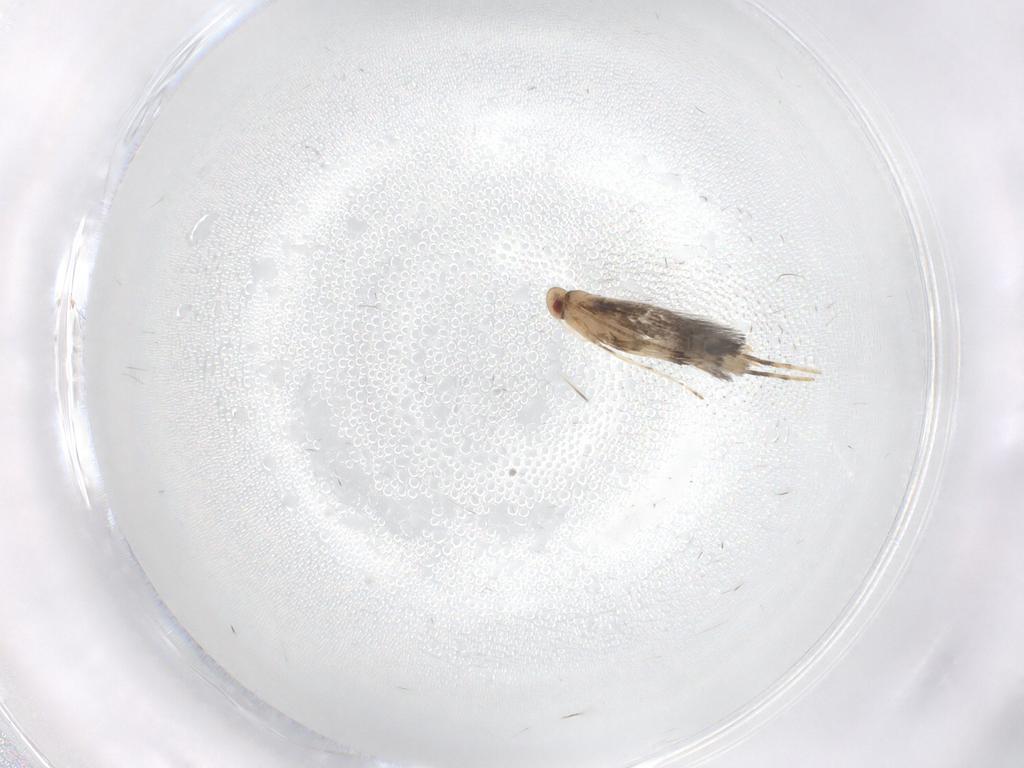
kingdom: Animalia
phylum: Arthropoda
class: Insecta
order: Lepidoptera
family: Gracillariidae
